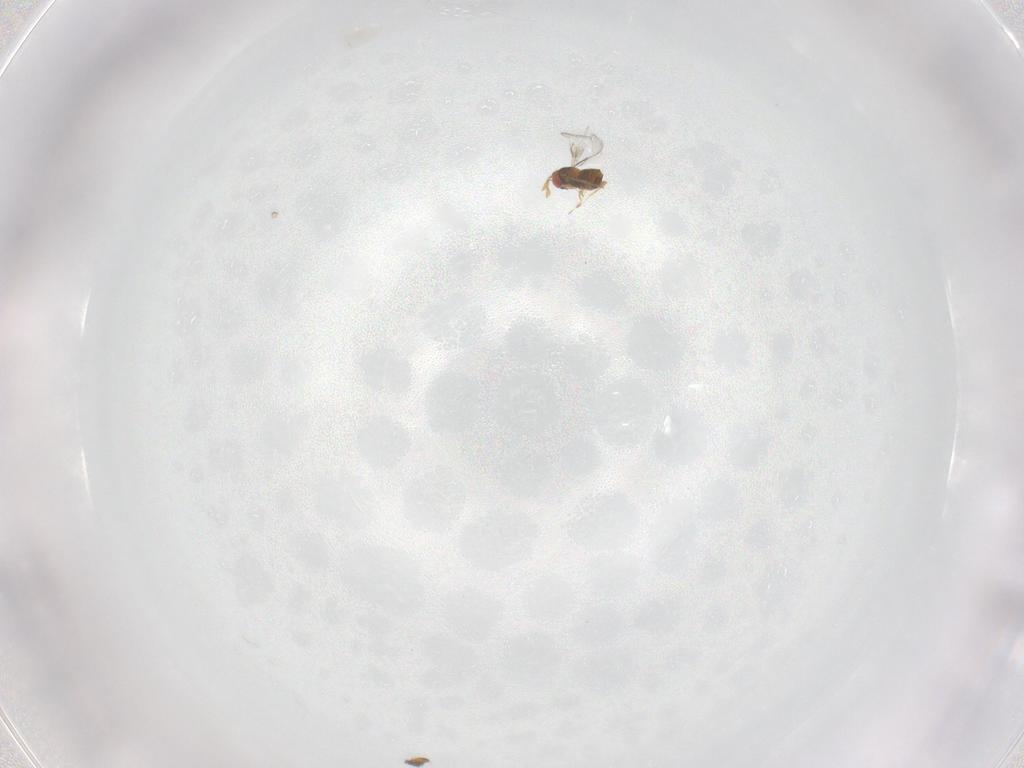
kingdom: Animalia
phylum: Arthropoda
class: Insecta
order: Hymenoptera
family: Trichogrammatidae
